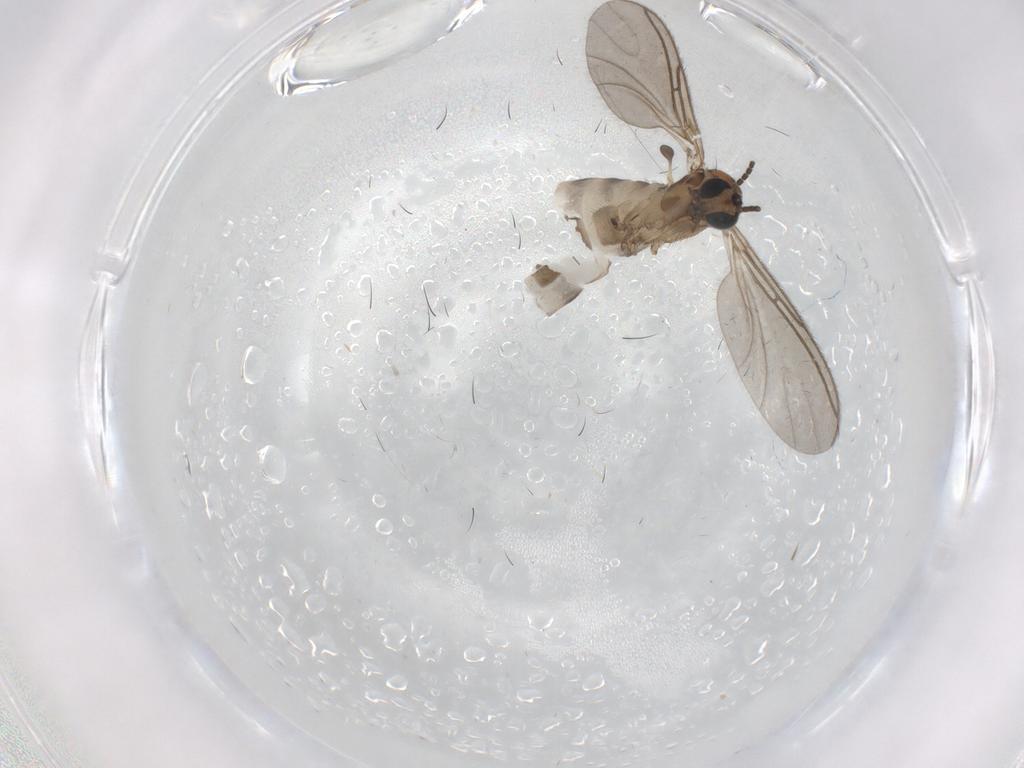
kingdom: Animalia
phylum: Arthropoda
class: Insecta
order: Diptera
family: Sciaridae
